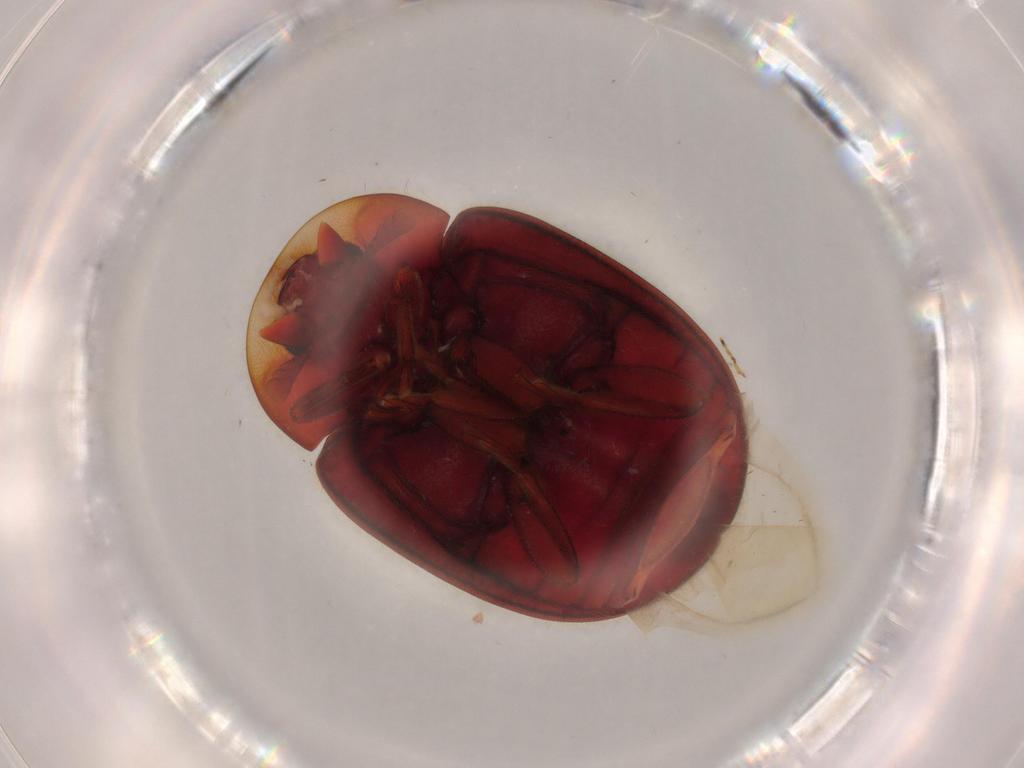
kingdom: Animalia
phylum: Arthropoda
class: Insecta
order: Coleoptera
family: Coccinellidae
